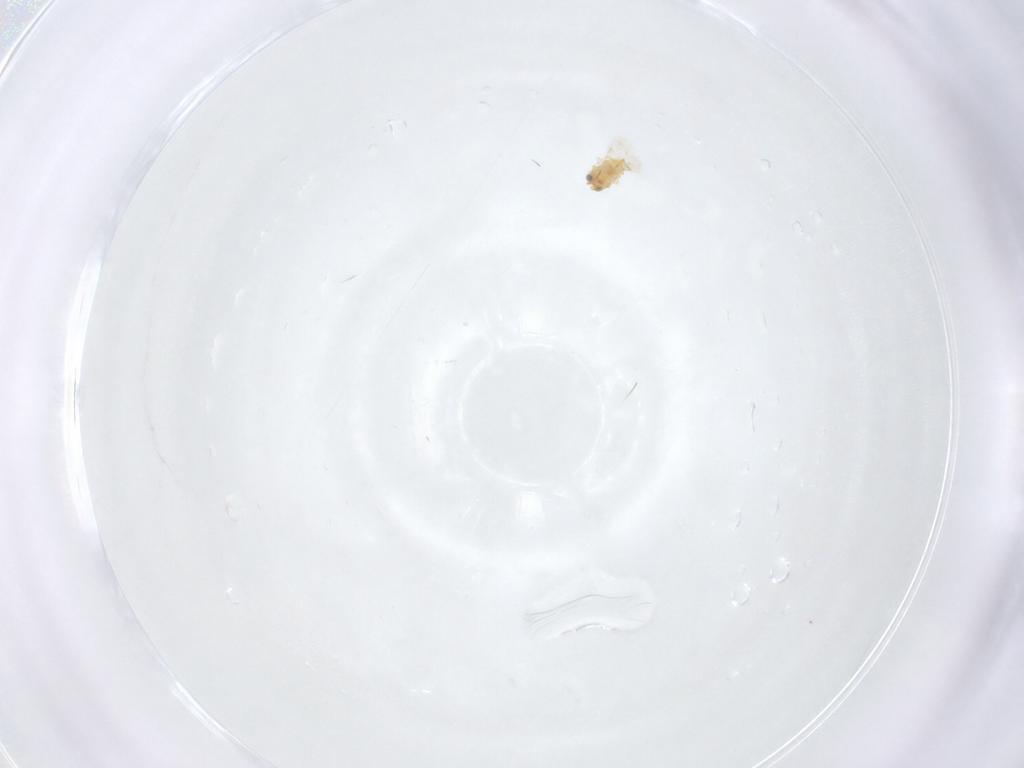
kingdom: Animalia
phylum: Arthropoda
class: Insecta
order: Hymenoptera
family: Aphelinidae
